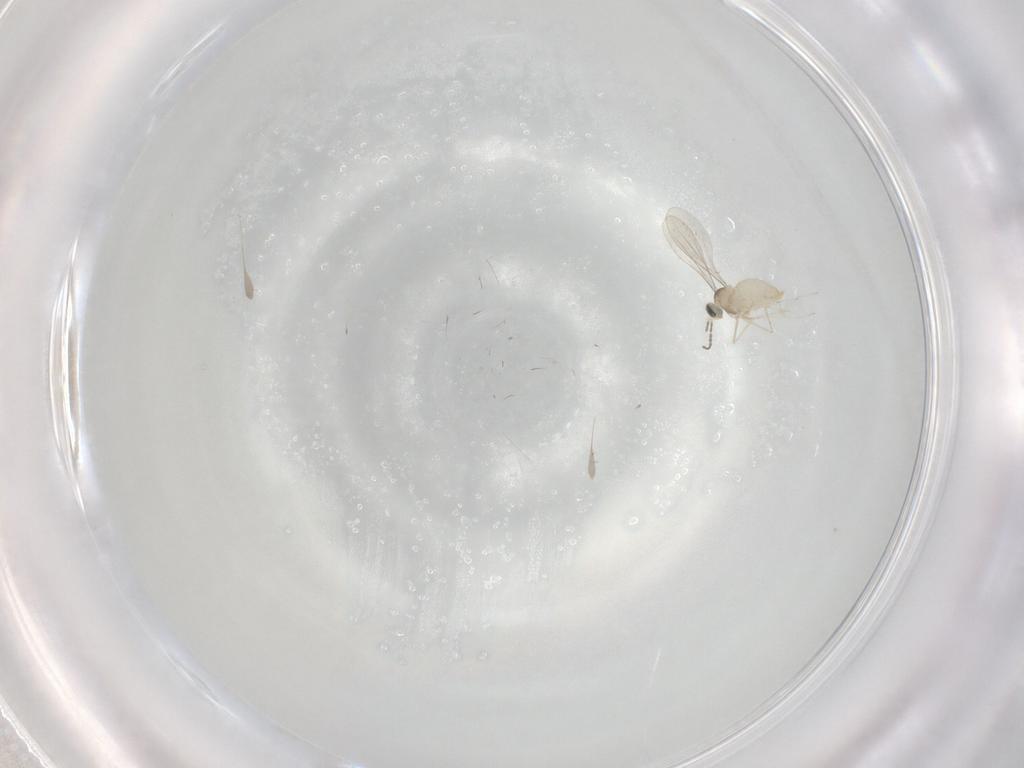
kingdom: Animalia
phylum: Arthropoda
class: Insecta
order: Diptera
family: Cecidomyiidae
